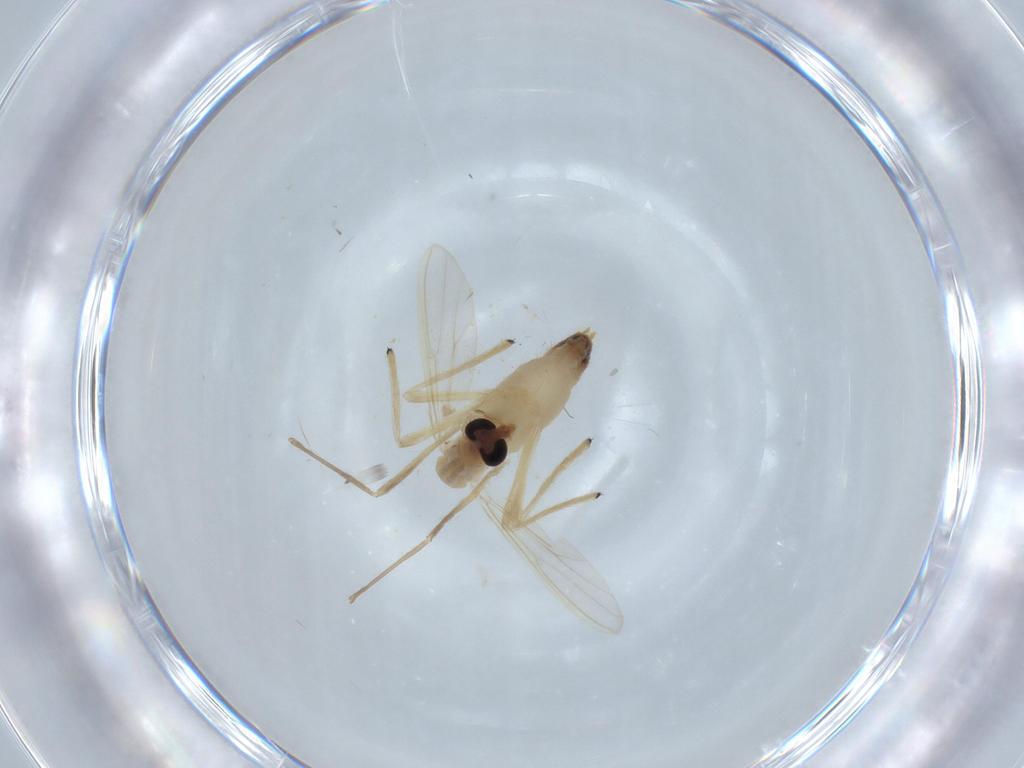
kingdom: Animalia
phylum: Arthropoda
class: Insecta
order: Diptera
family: Chironomidae
